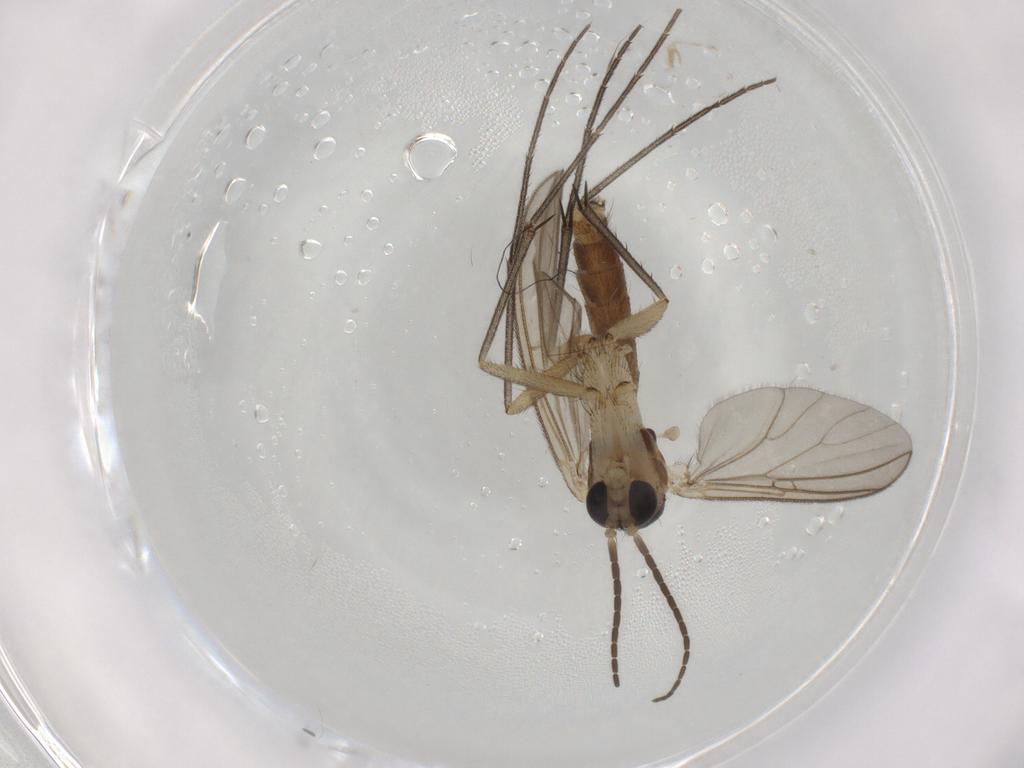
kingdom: Animalia
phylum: Arthropoda
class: Insecta
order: Diptera
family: Mycetophilidae
